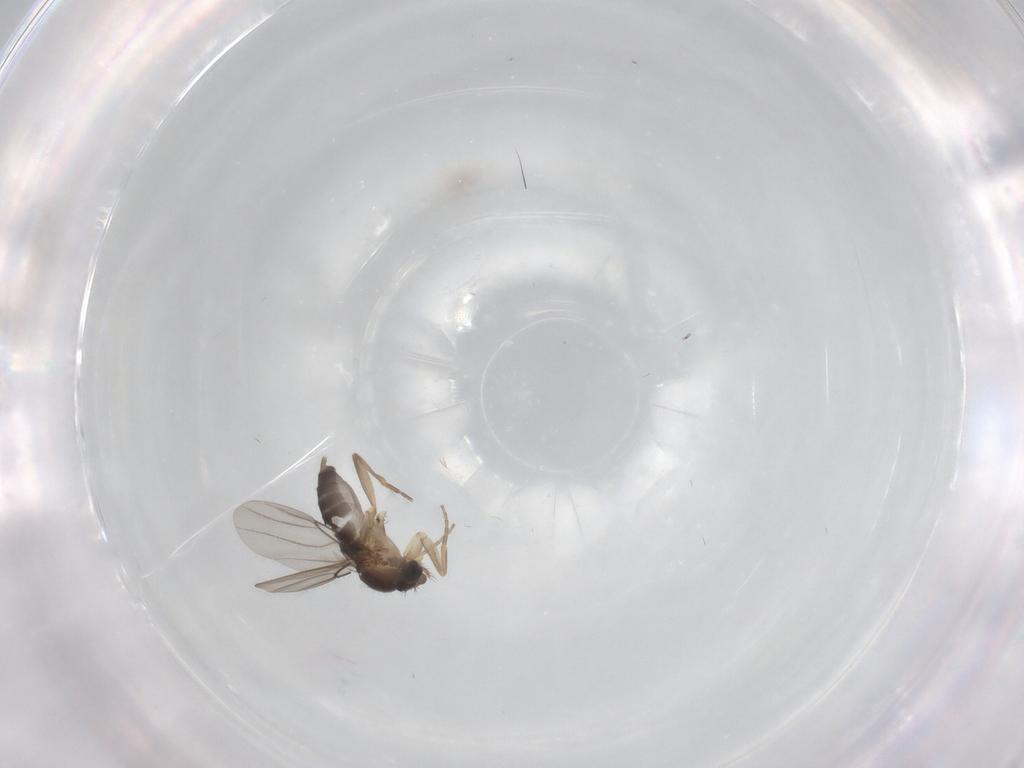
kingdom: Animalia
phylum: Arthropoda
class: Insecta
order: Diptera
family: Phoridae
